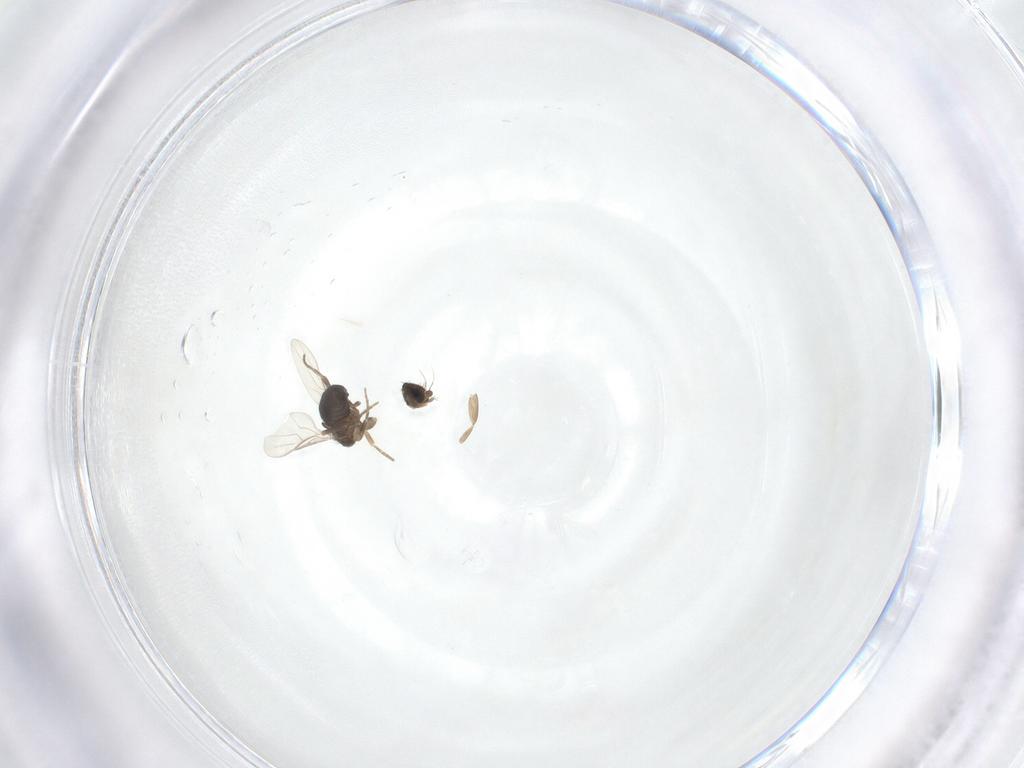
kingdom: Animalia
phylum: Arthropoda
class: Insecta
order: Diptera
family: Phoridae
